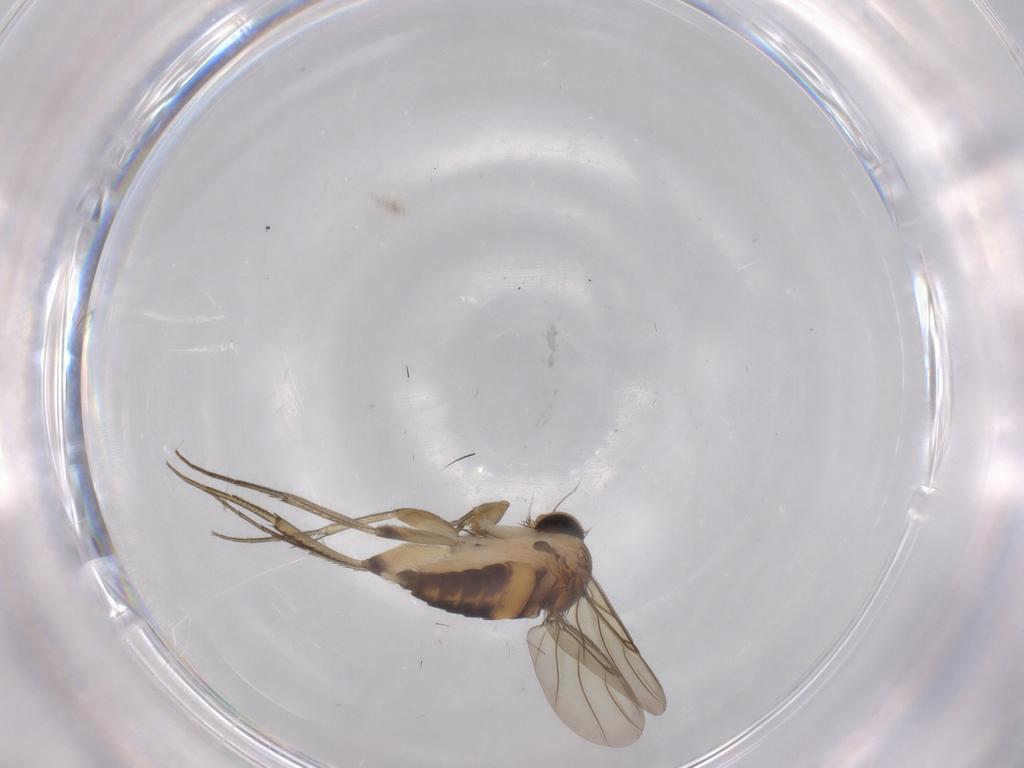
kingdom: Animalia
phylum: Arthropoda
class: Insecta
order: Diptera
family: Phoridae
